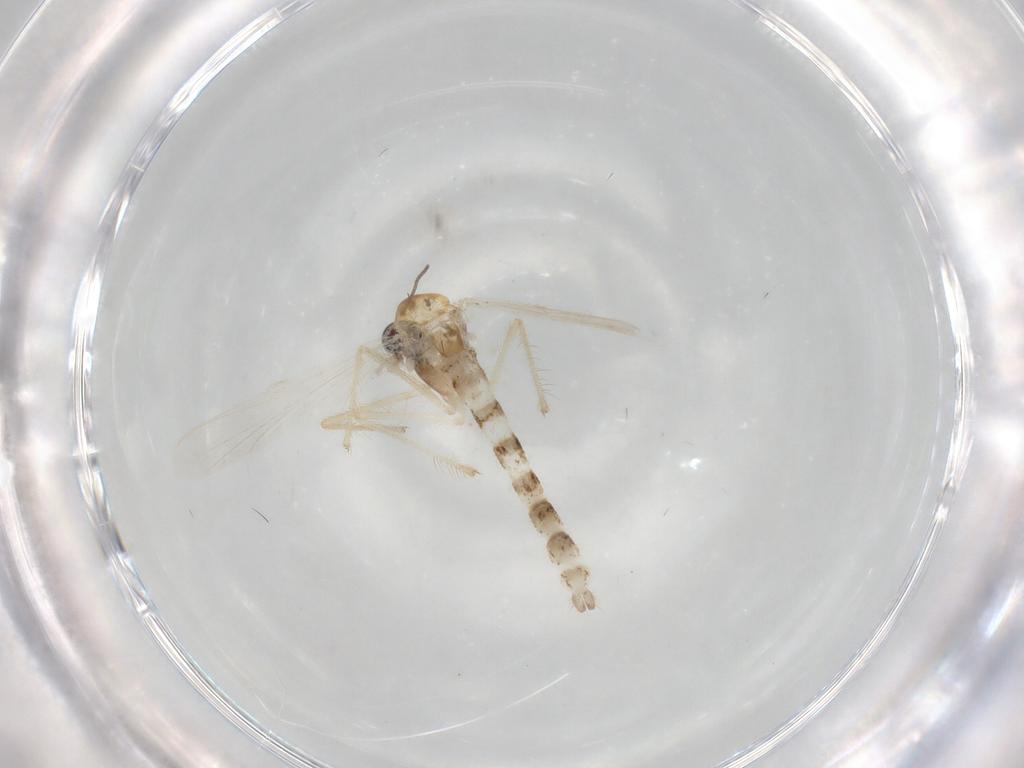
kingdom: Animalia
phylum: Arthropoda
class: Insecta
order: Diptera
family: Chironomidae
